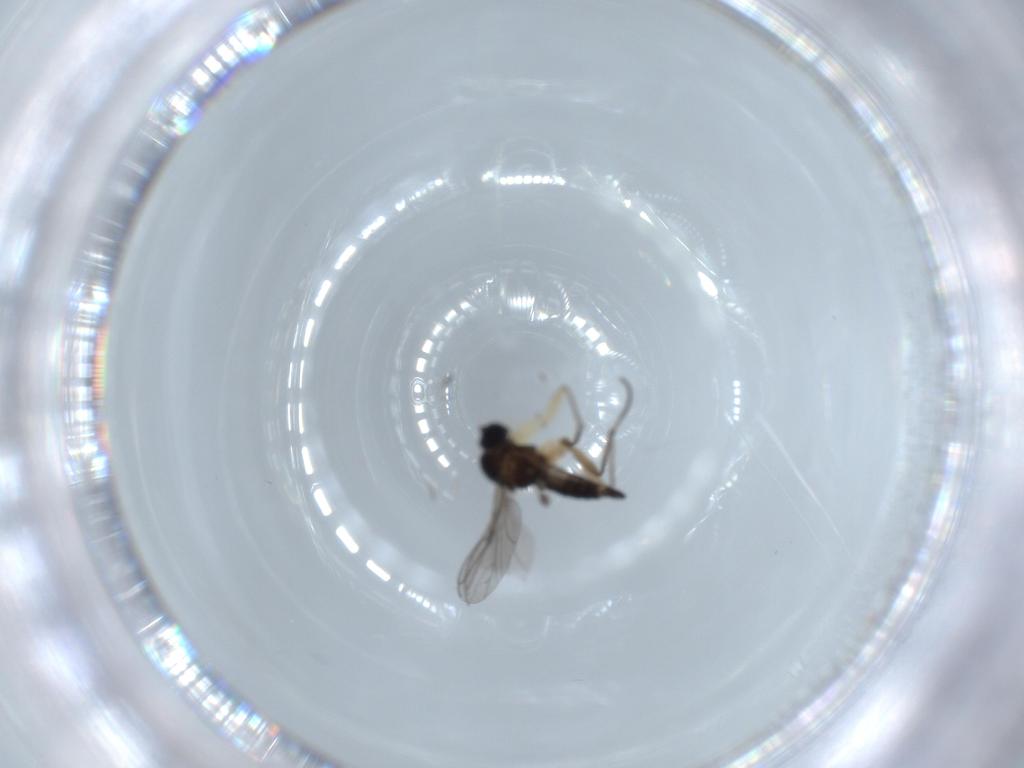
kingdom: Animalia
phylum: Arthropoda
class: Insecta
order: Diptera
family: Sciaridae
